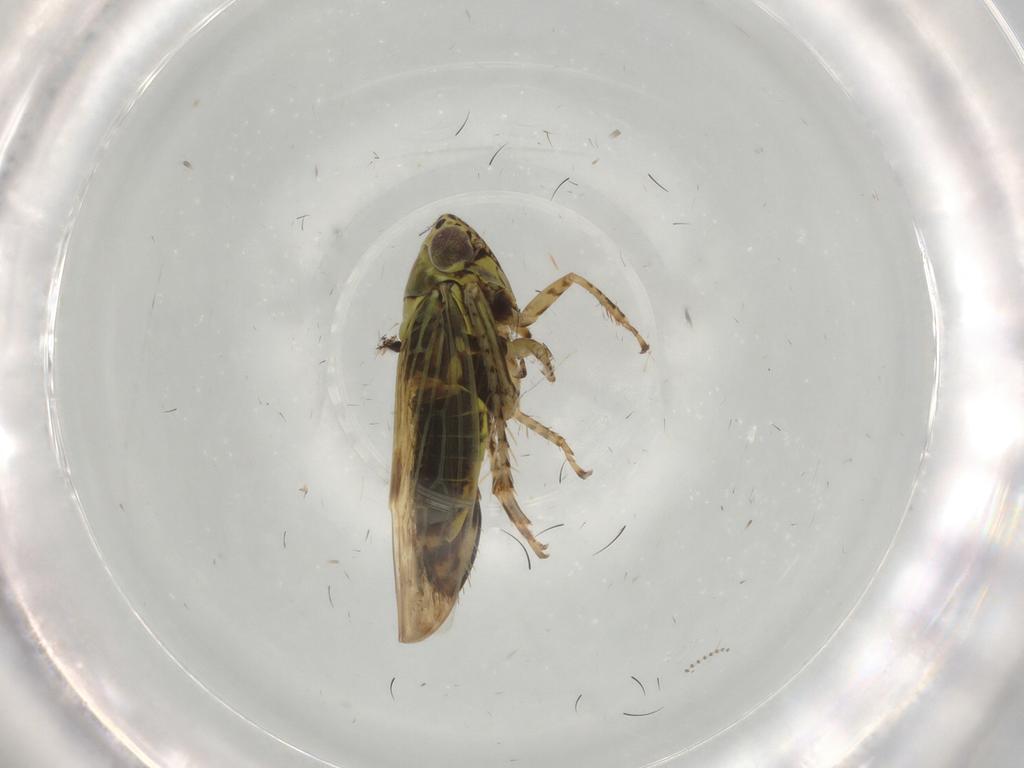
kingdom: Animalia
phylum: Arthropoda
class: Insecta
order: Hemiptera
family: Cicadellidae
